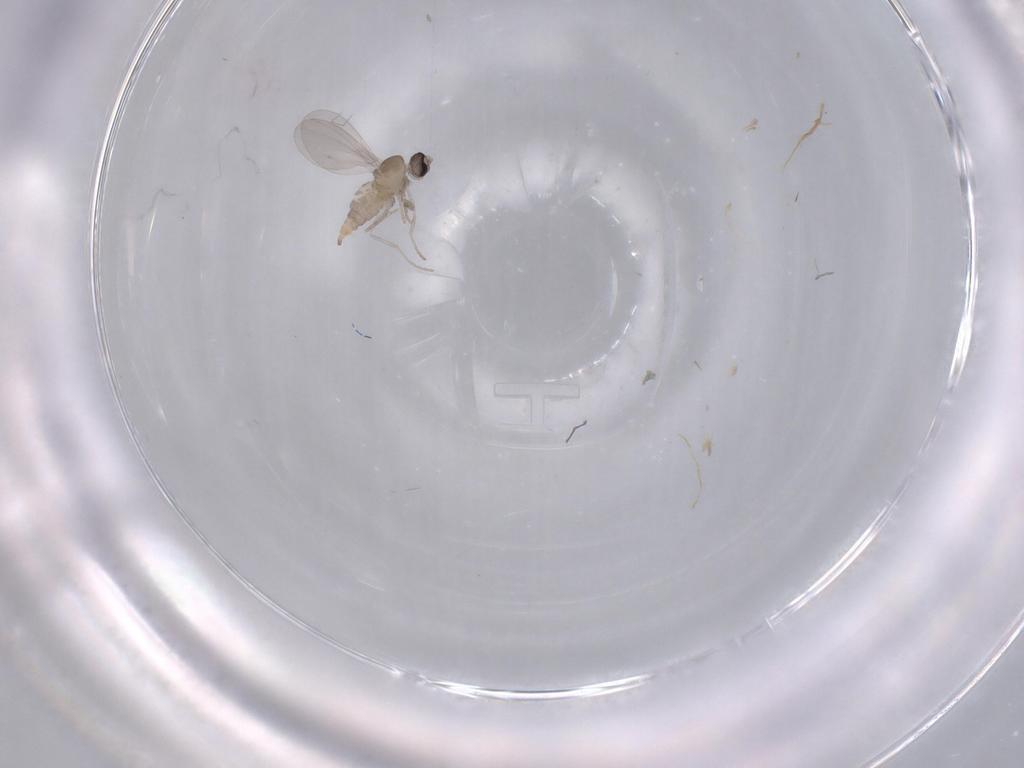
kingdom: Animalia
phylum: Arthropoda
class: Insecta
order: Diptera
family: Cecidomyiidae
